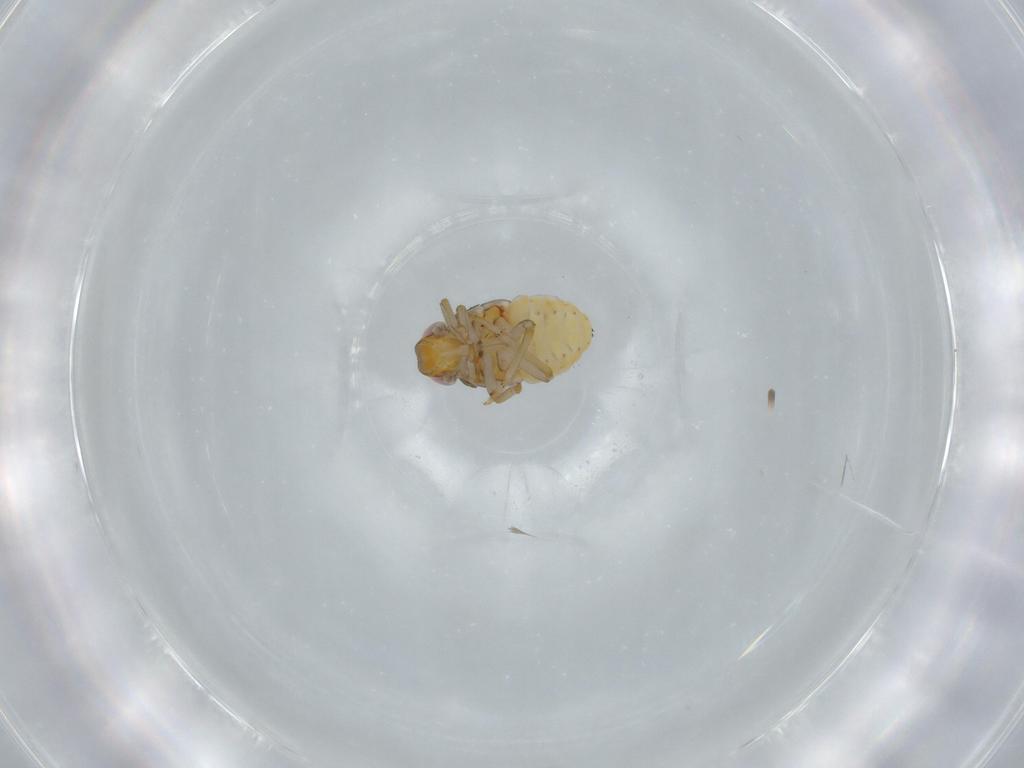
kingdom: Animalia
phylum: Arthropoda
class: Insecta
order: Hemiptera
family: Issidae
